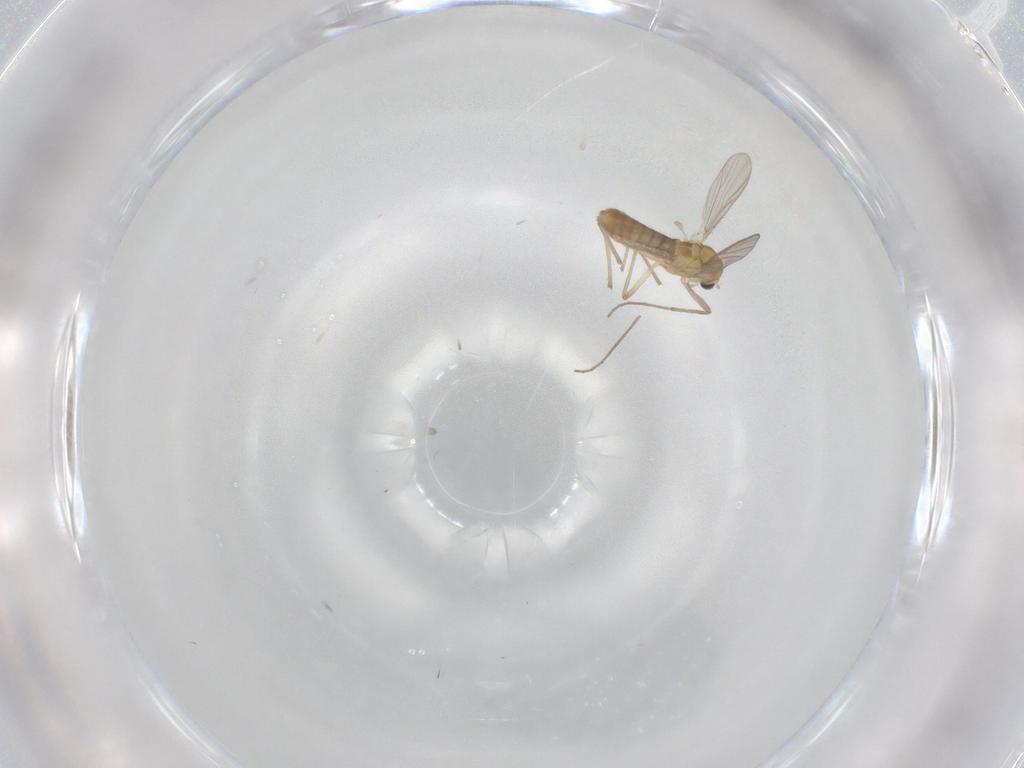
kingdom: Animalia
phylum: Arthropoda
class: Insecta
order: Diptera
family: Chironomidae
